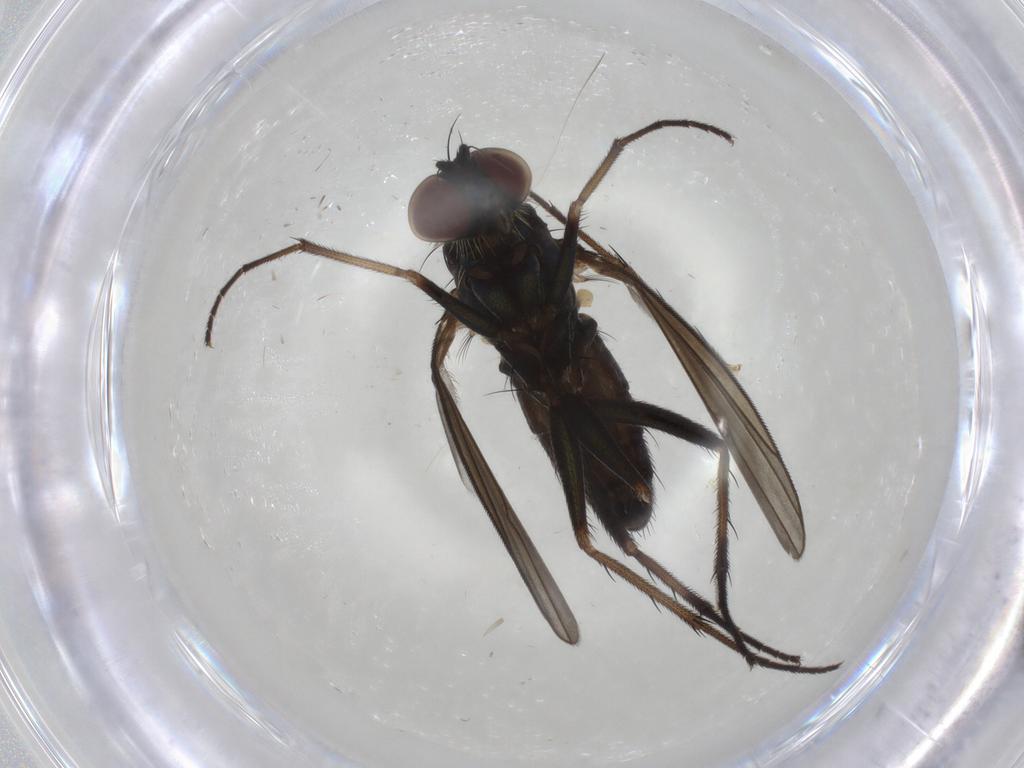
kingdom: Animalia
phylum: Arthropoda
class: Insecta
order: Diptera
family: Dolichopodidae
